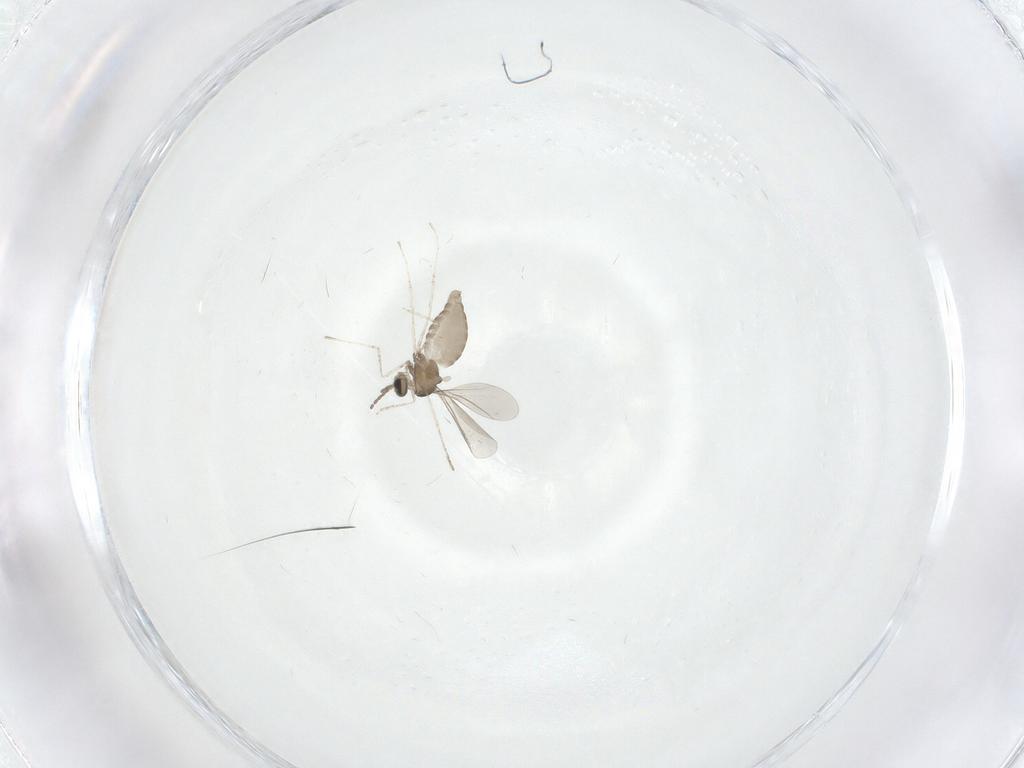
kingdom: Animalia
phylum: Arthropoda
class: Insecta
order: Diptera
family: Cecidomyiidae
